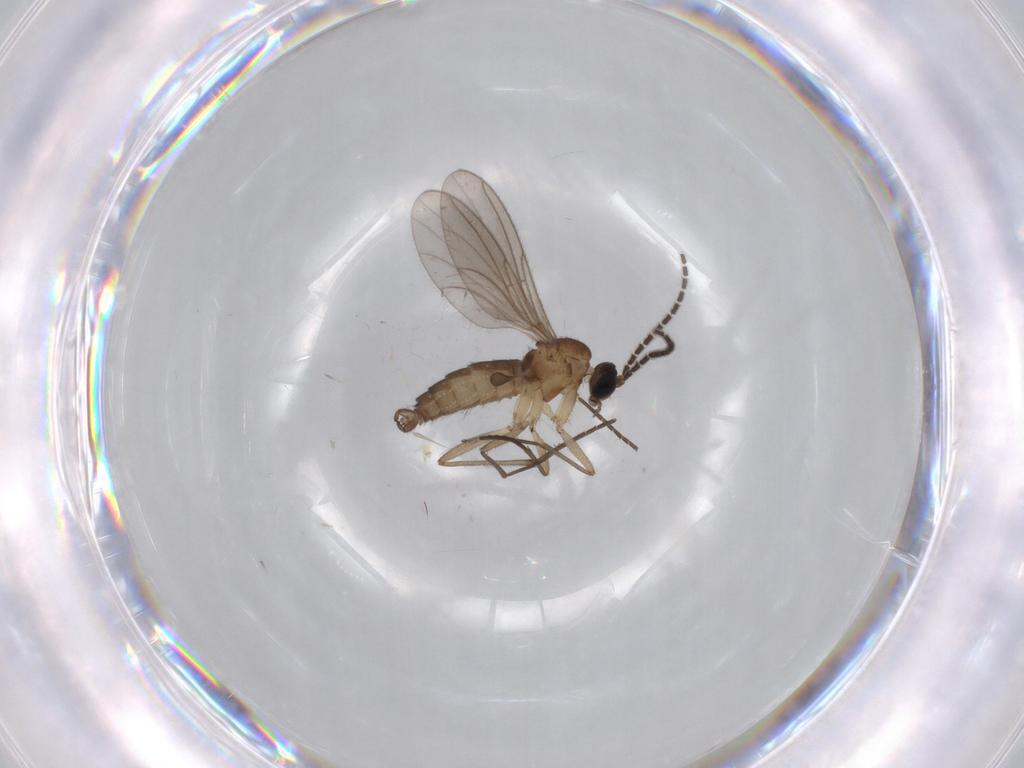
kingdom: Animalia
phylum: Arthropoda
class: Insecta
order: Diptera
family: Sciaridae
